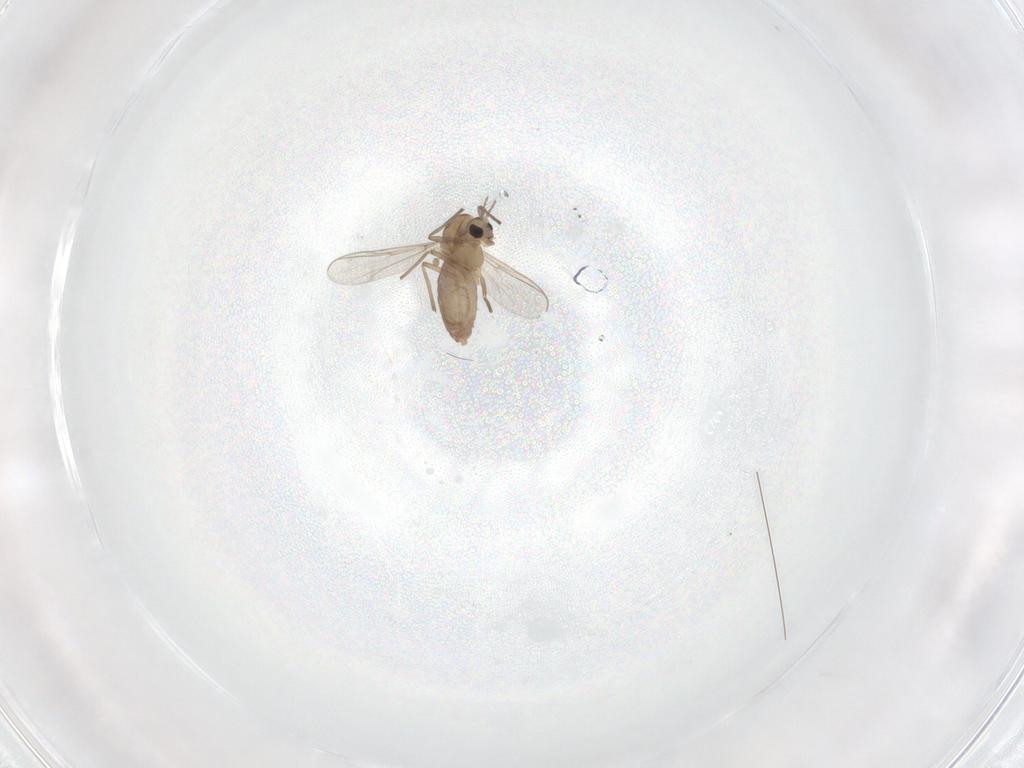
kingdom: Animalia
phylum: Arthropoda
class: Insecta
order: Diptera
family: Chironomidae
